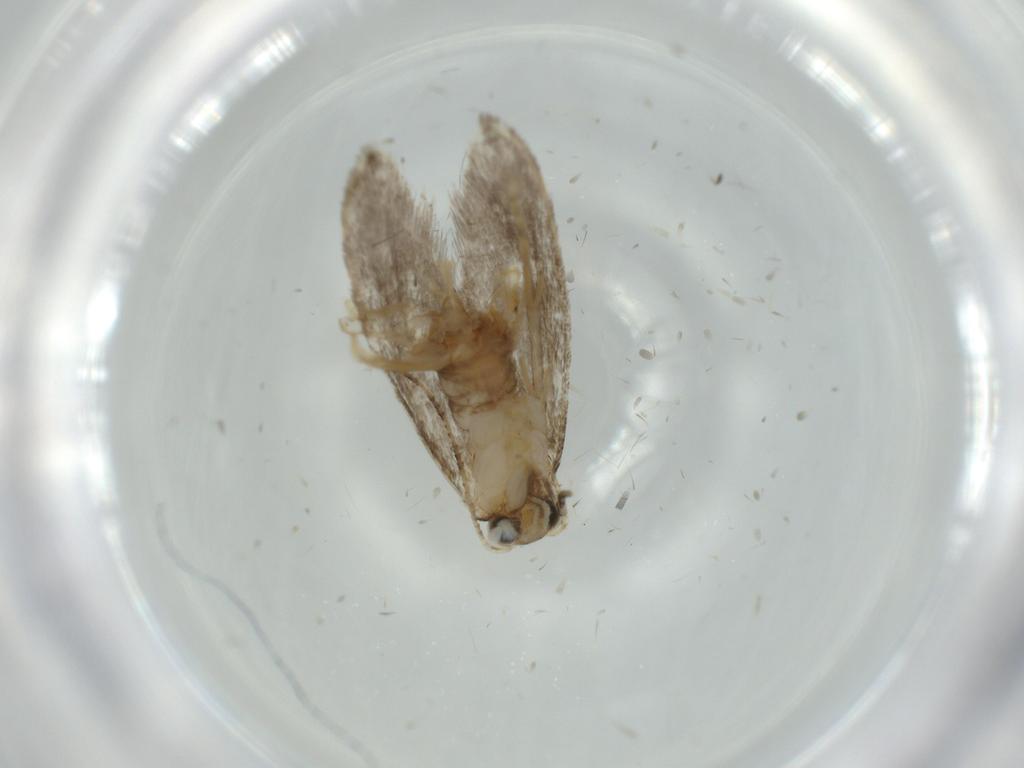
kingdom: Animalia
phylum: Arthropoda
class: Insecta
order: Lepidoptera
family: Tineidae
